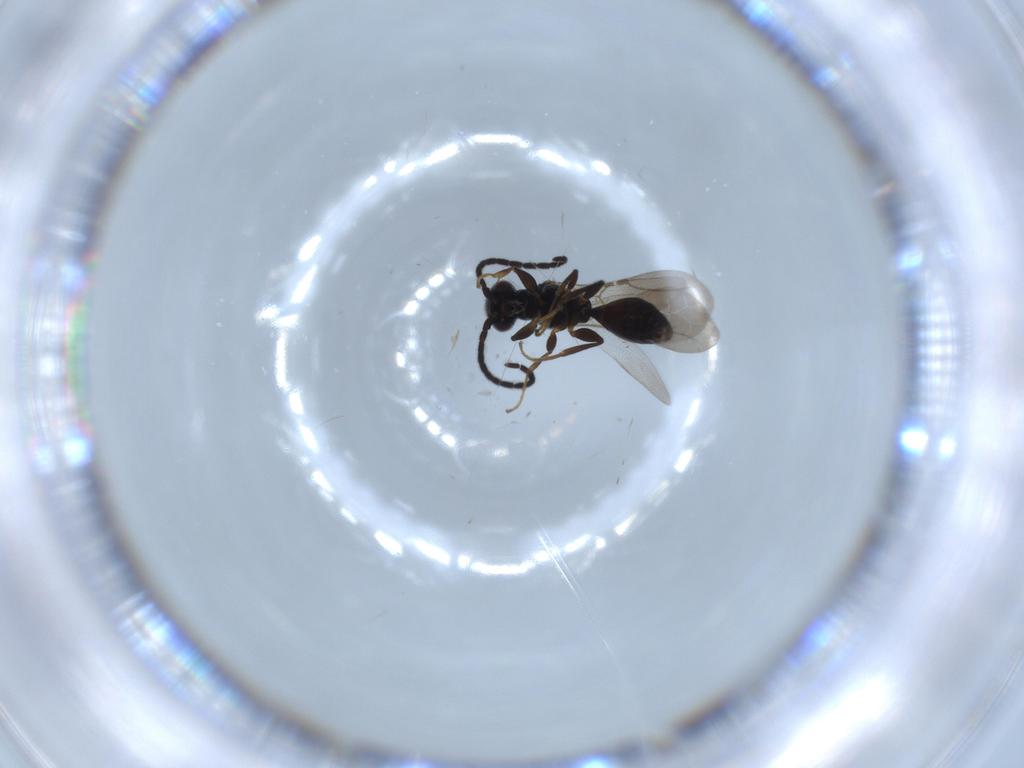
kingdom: Animalia
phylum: Arthropoda
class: Insecta
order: Hymenoptera
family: Bethylidae
